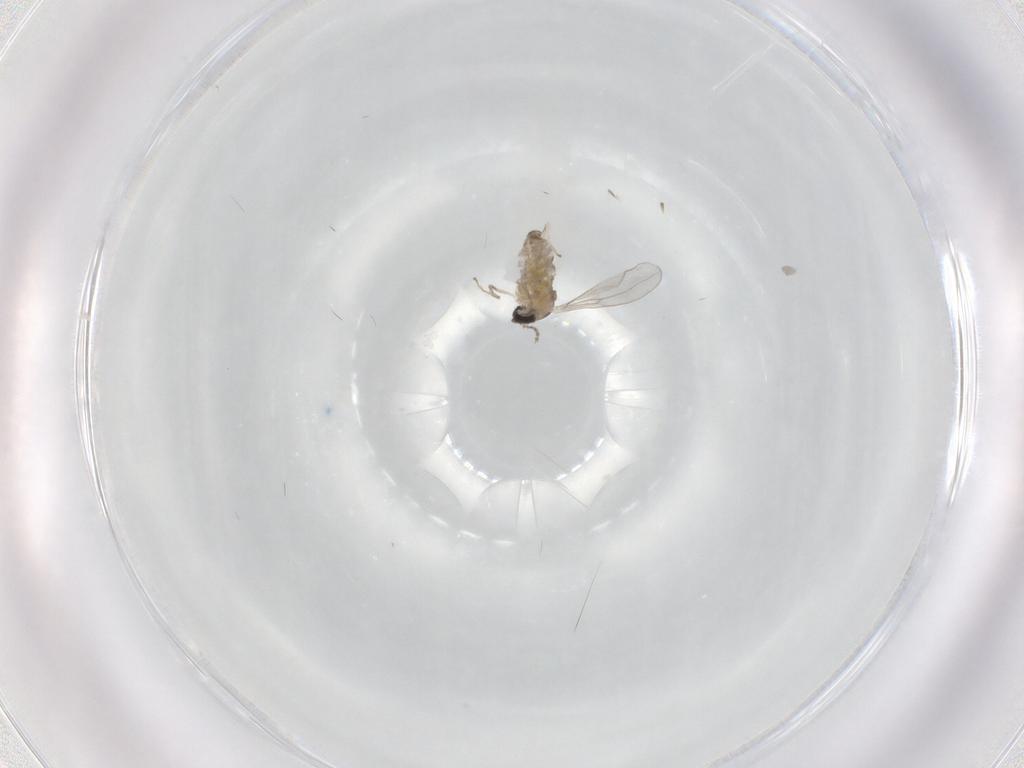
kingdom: Animalia
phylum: Arthropoda
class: Insecta
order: Diptera
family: Cecidomyiidae
